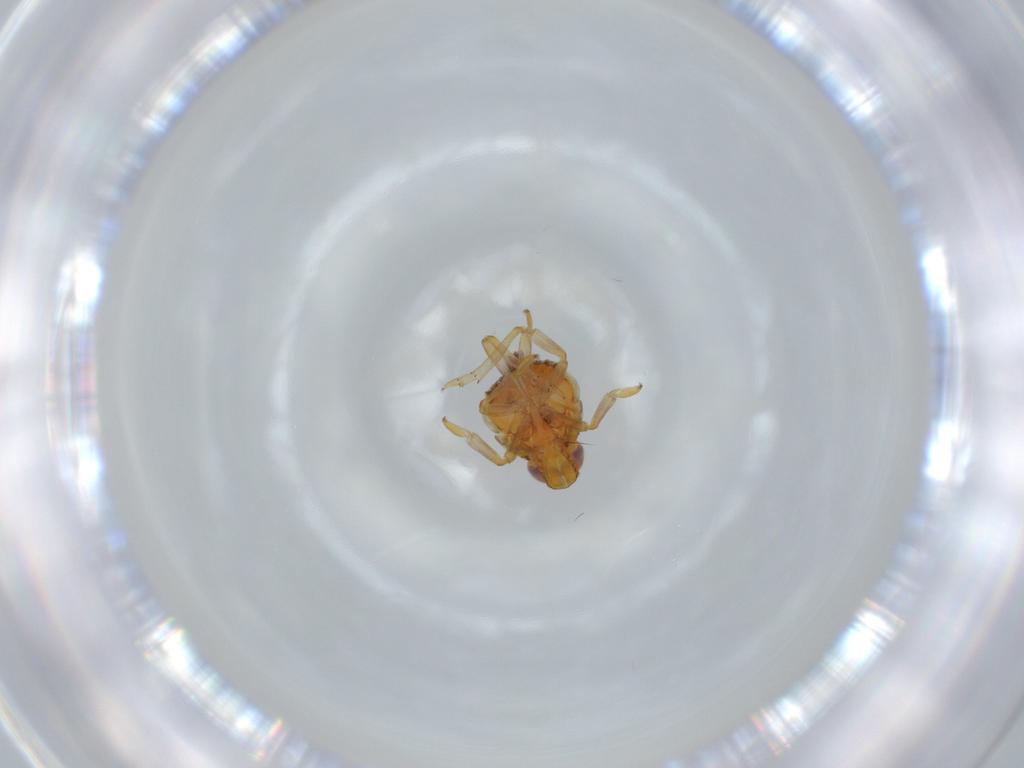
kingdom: Animalia
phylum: Arthropoda
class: Insecta
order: Hemiptera
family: Issidae
